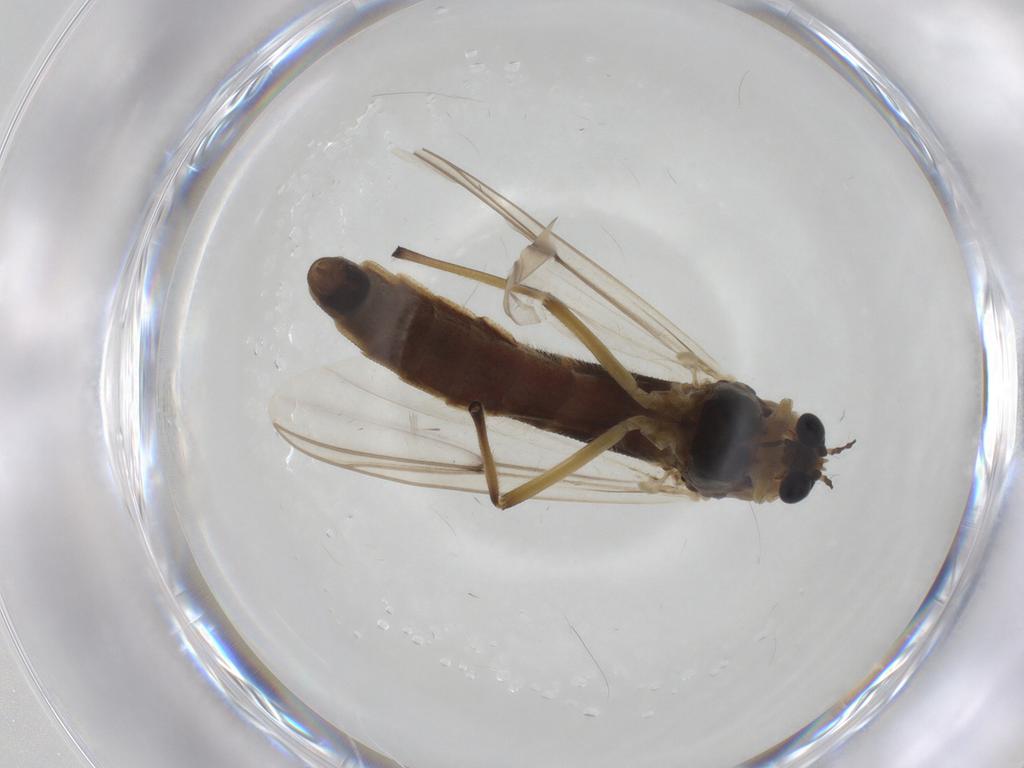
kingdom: Animalia
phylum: Arthropoda
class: Insecta
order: Diptera
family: Chironomidae
